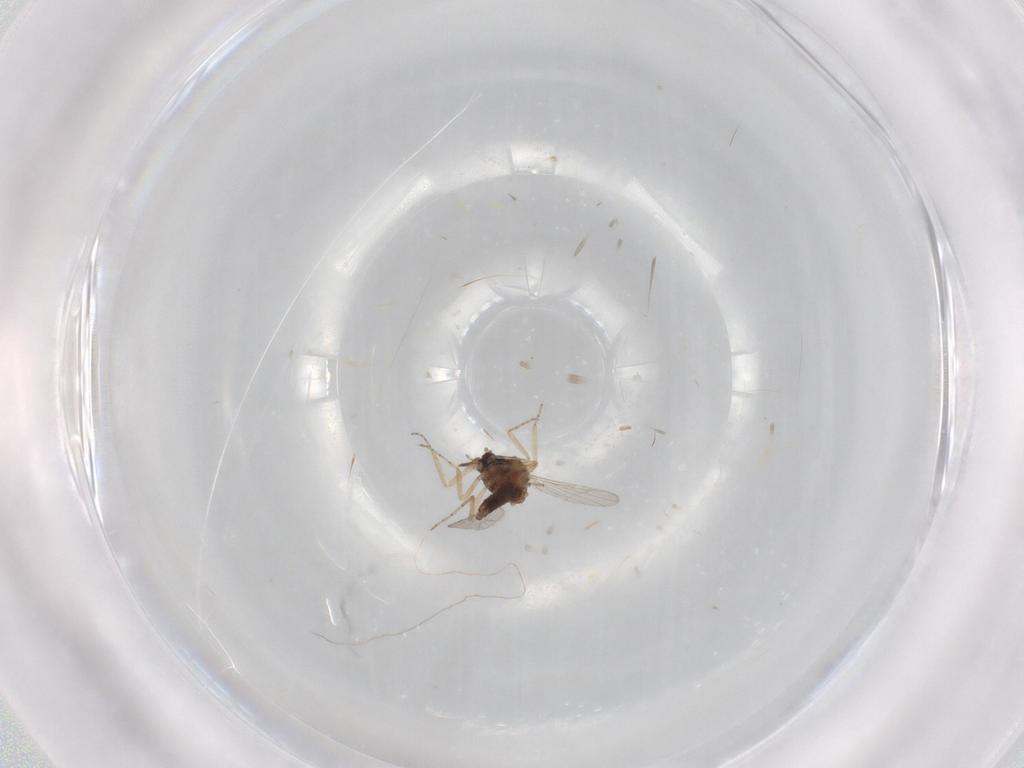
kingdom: Animalia
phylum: Arthropoda
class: Insecta
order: Diptera
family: Ceratopogonidae
